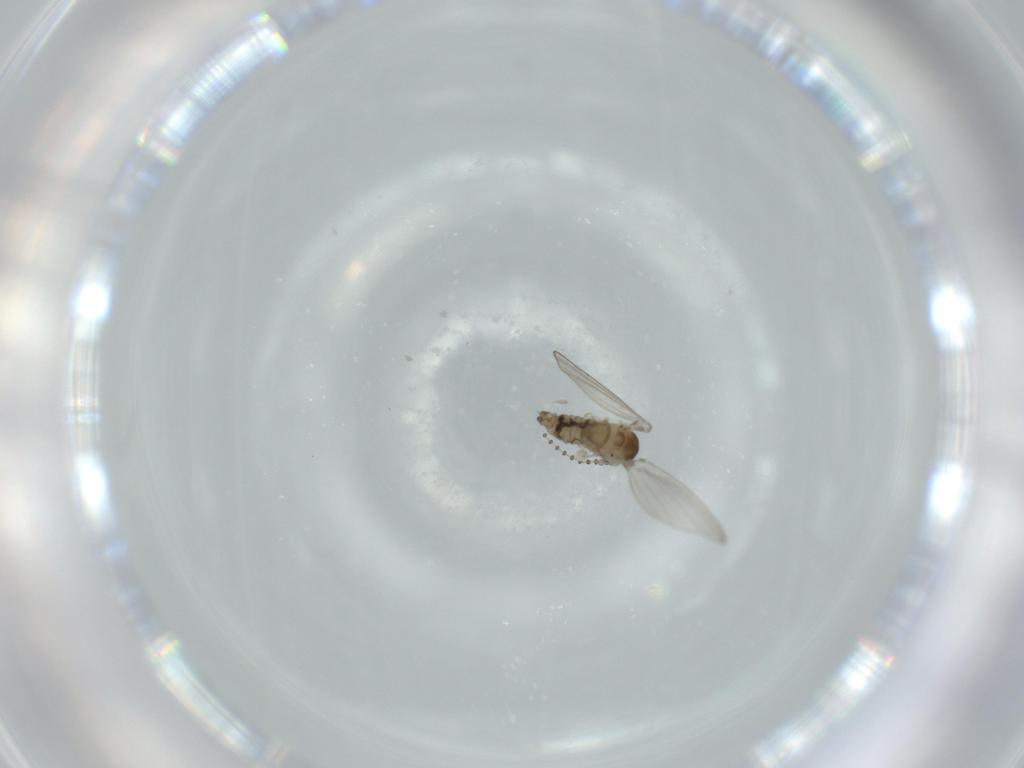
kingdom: Animalia
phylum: Arthropoda
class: Insecta
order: Diptera
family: Psychodidae
